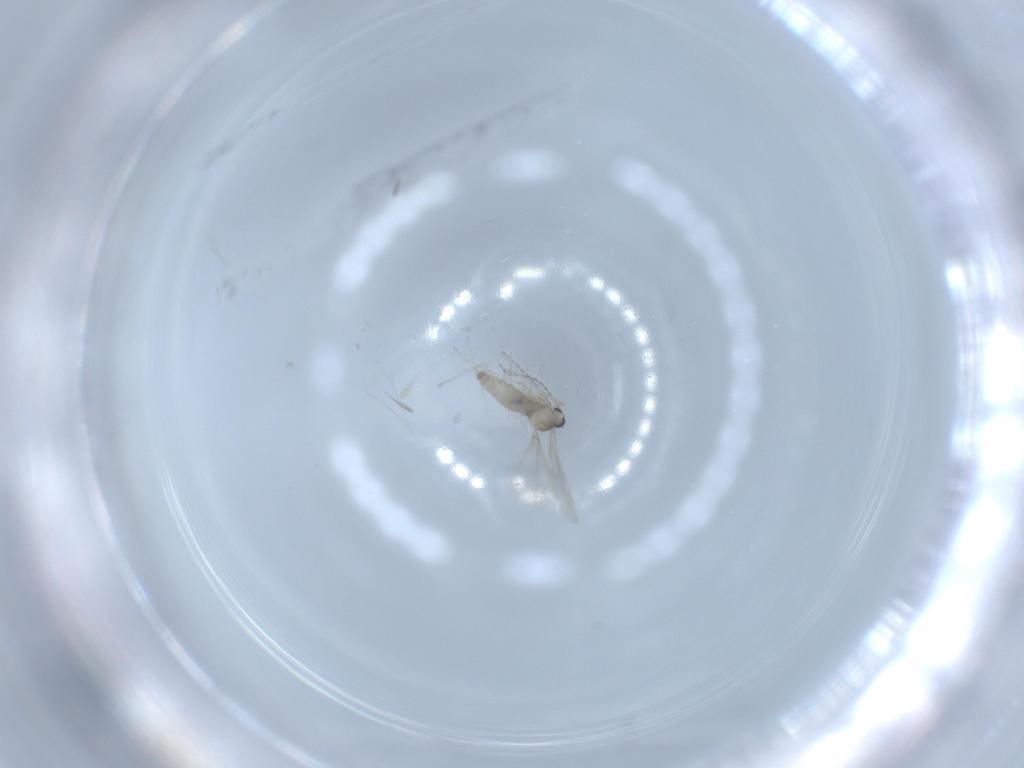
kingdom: Animalia
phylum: Arthropoda
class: Insecta
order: Diptera
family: Cecidomyiidae
